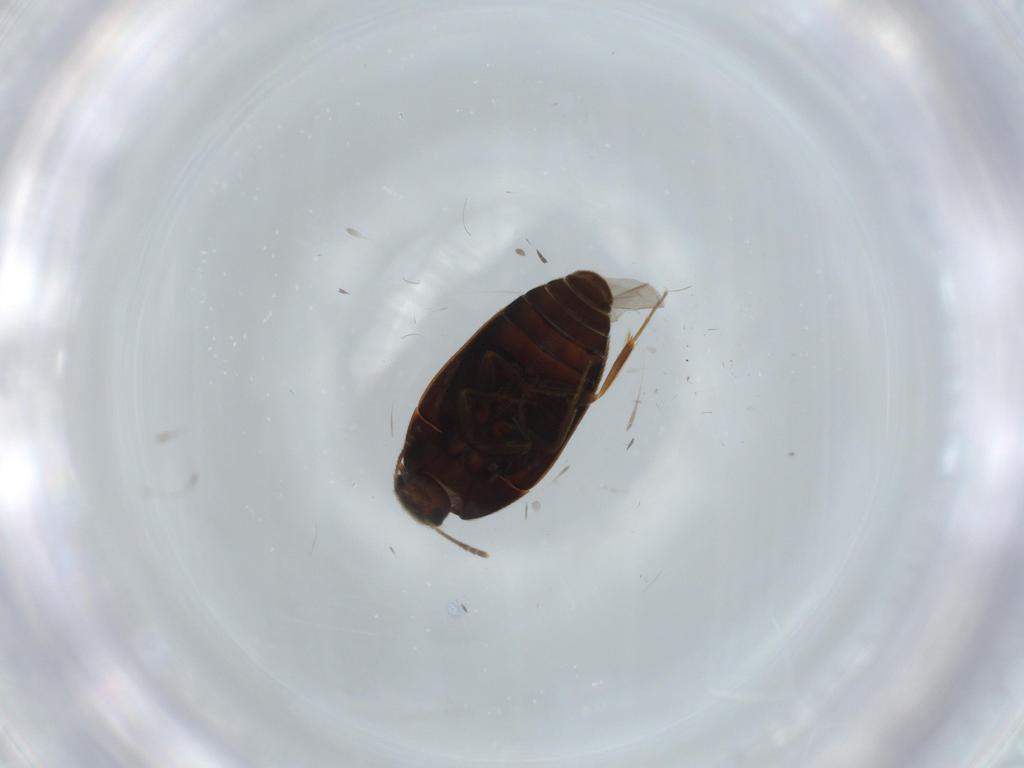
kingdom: Animalia
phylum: Arthropoda
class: Insecta
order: Coleoptera
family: Mycetophagidae
